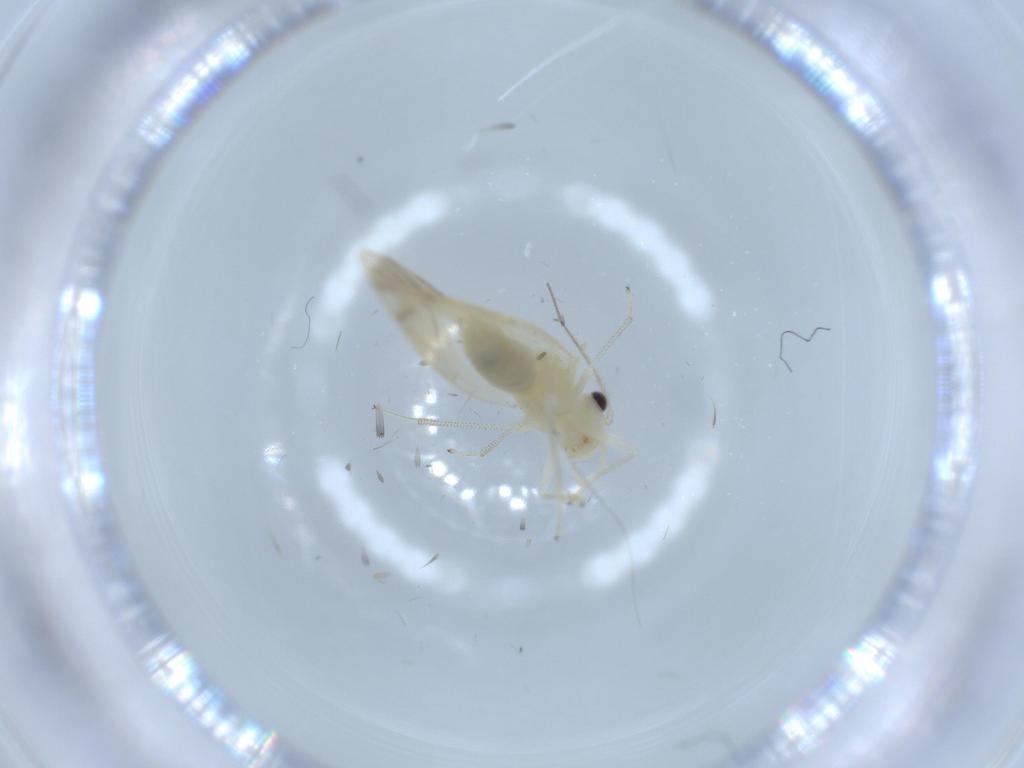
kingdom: Animalia
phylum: Arthropoda
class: Insecta
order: Psocodea
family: Caeciliusidae
